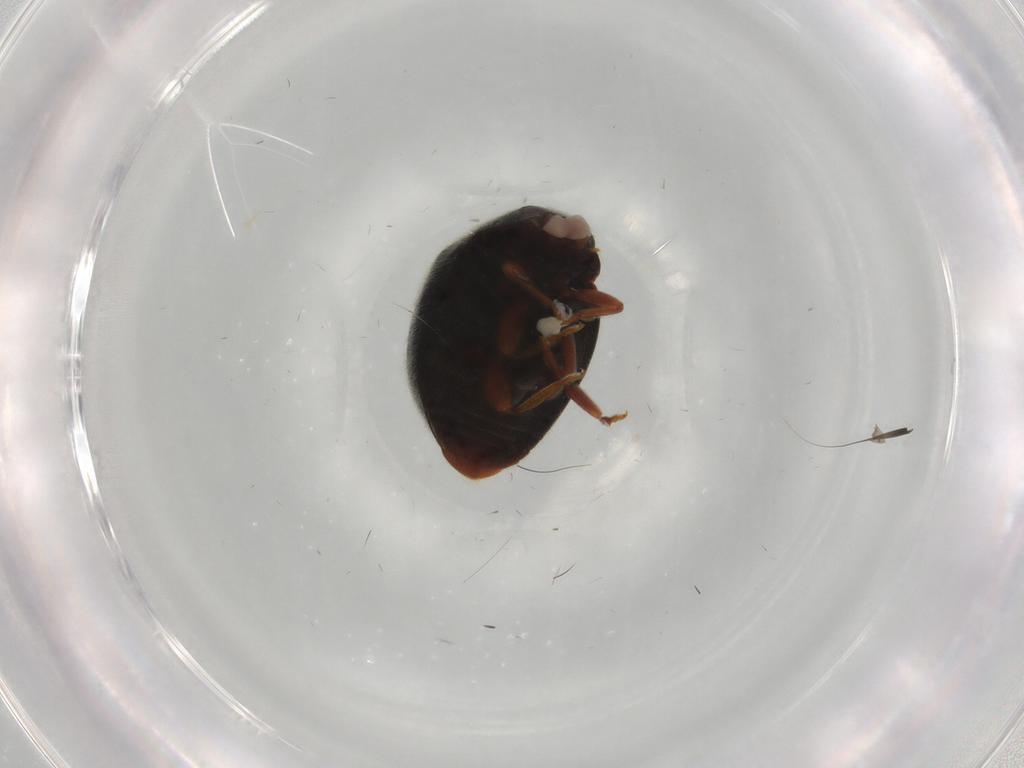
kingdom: Animalia
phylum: Arthropoda
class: Insecta
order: Coleoptera
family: Coccinellidae
